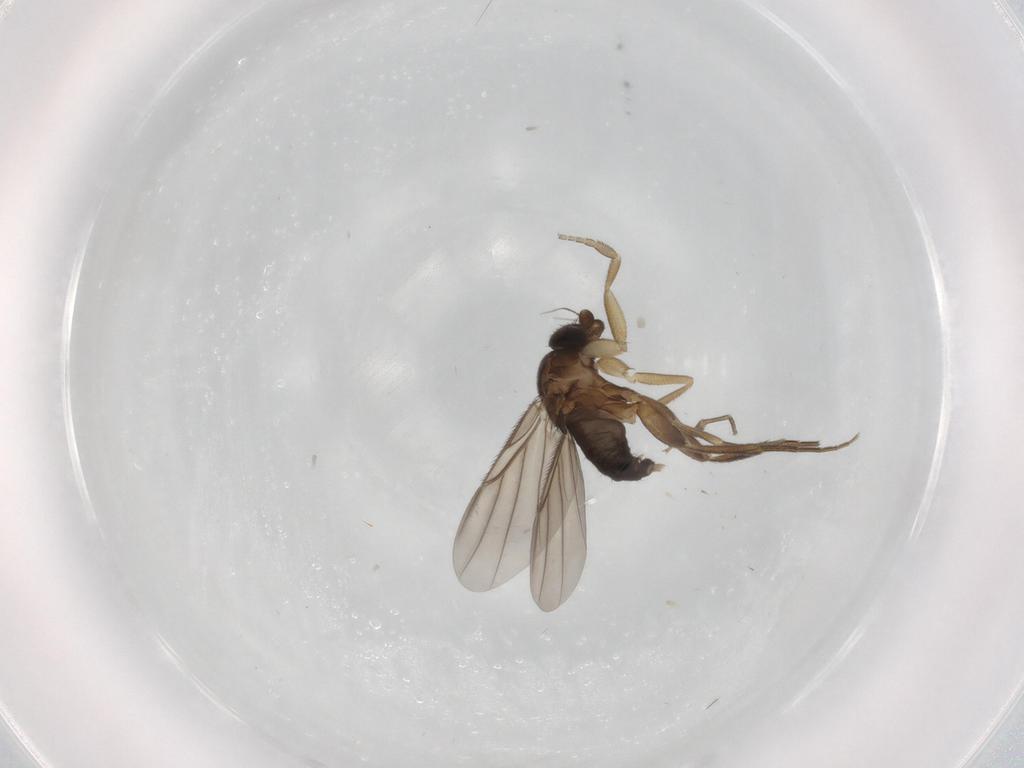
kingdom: Animalia
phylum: Arthropoda
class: Insecta
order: Diptera
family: Phoridae
